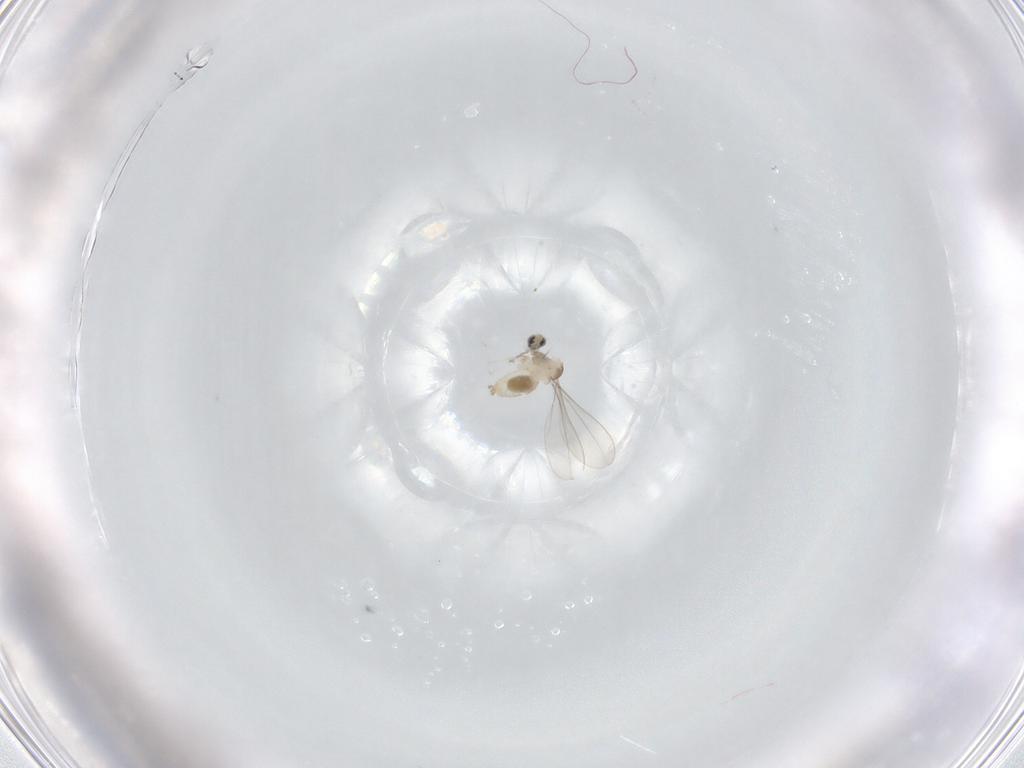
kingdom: Animalia
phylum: Arthropoda
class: Insecta
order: Diptera
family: Cecidomyiidae
